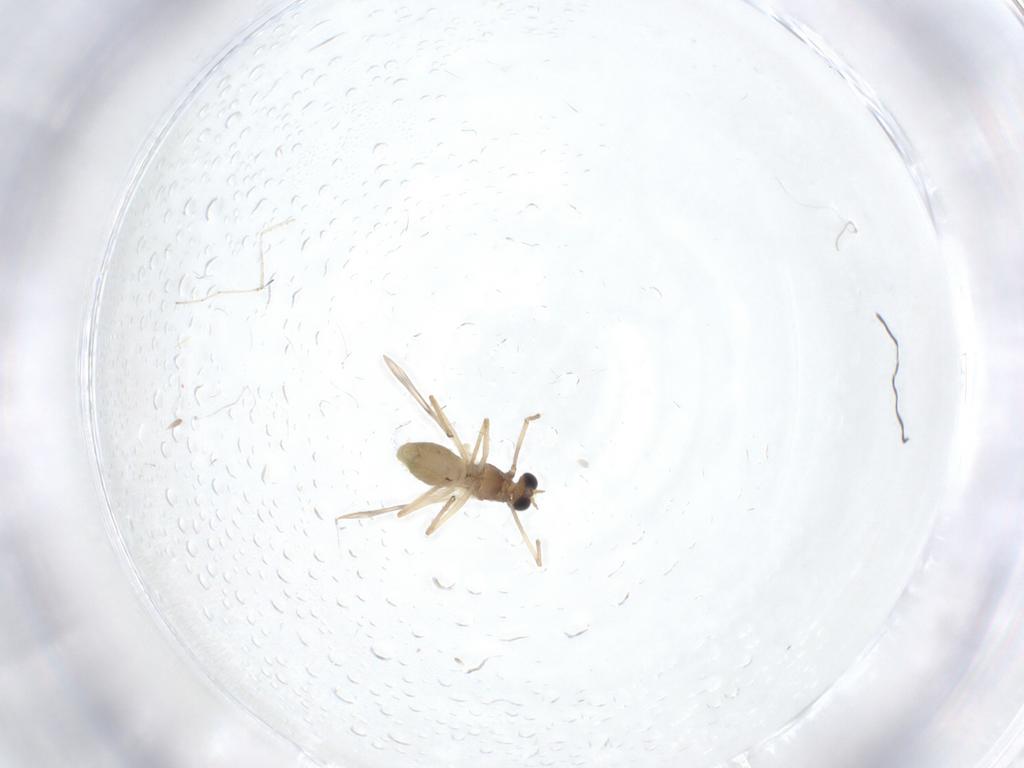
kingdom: Animalia
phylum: Arthropoda
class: Insecta
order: Diptera
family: Chironomidae
